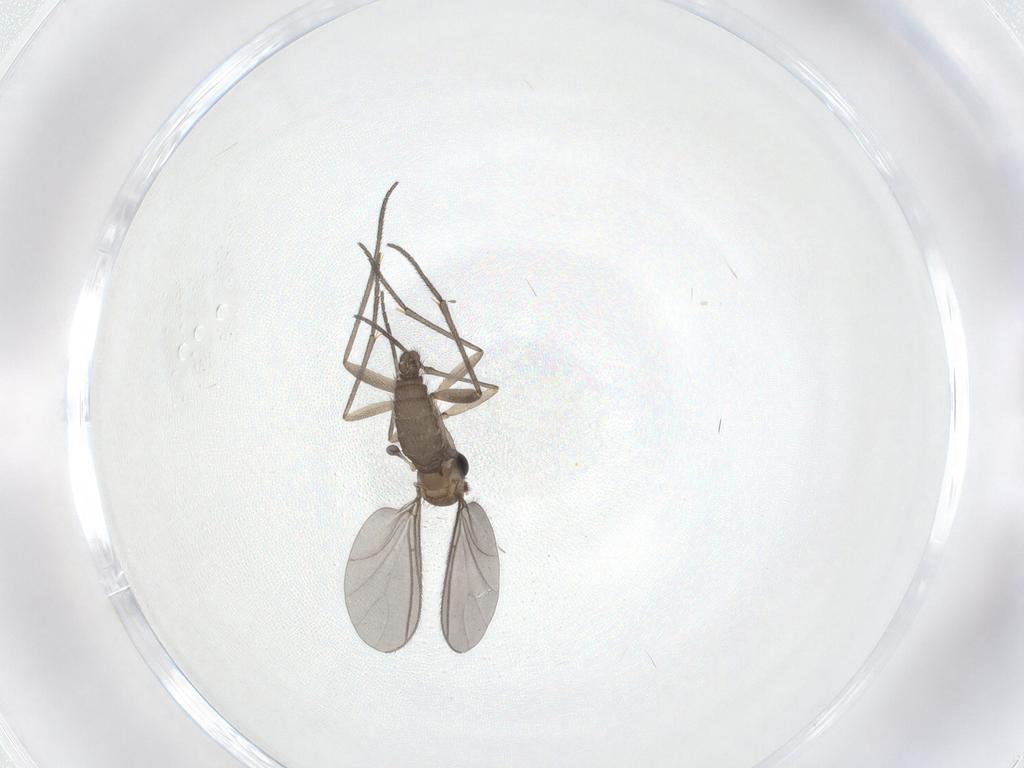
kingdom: Animalia
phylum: Arthropoda
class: Insecta
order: Diptera
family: Sciaridae
